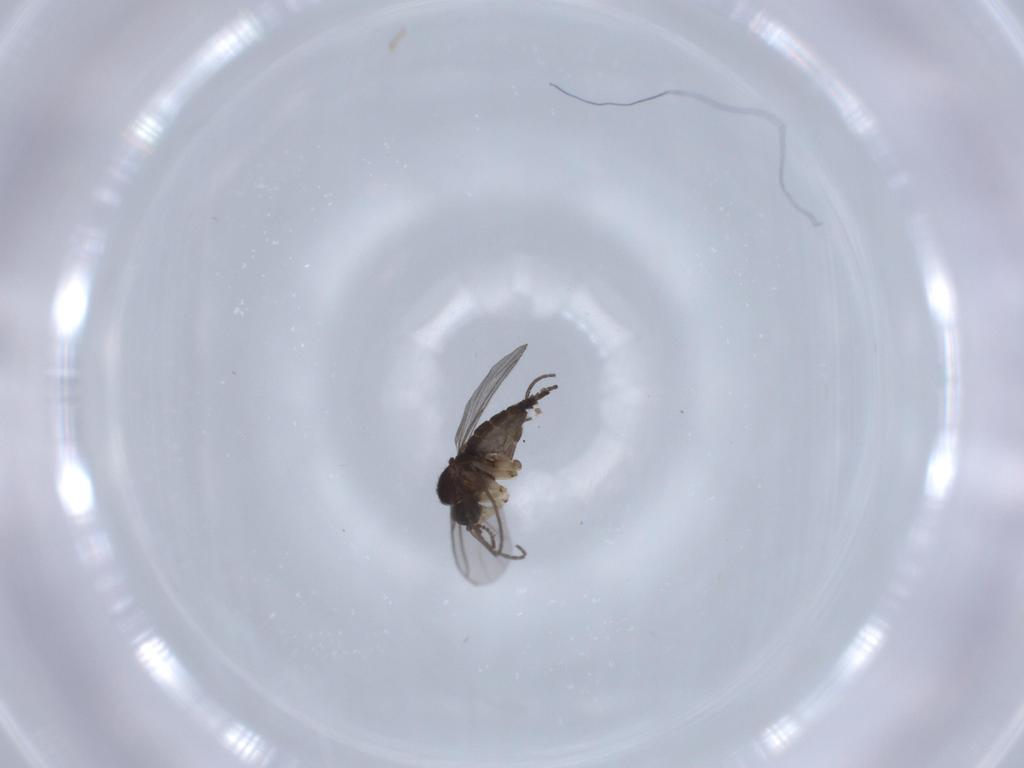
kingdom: Animalia
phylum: Arthropoda
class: Insecta
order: Diptera
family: Sciaridae
